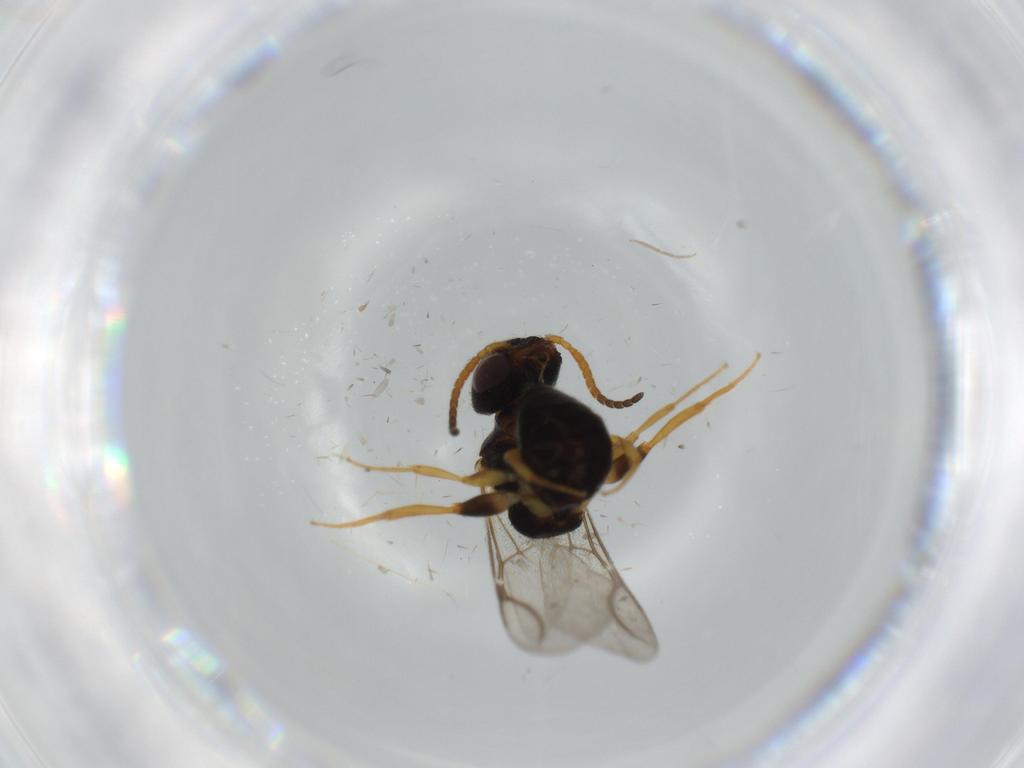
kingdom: Animalia
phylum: Arthropoda
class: Insecta
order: Hymenoptera
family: Bethylidae
